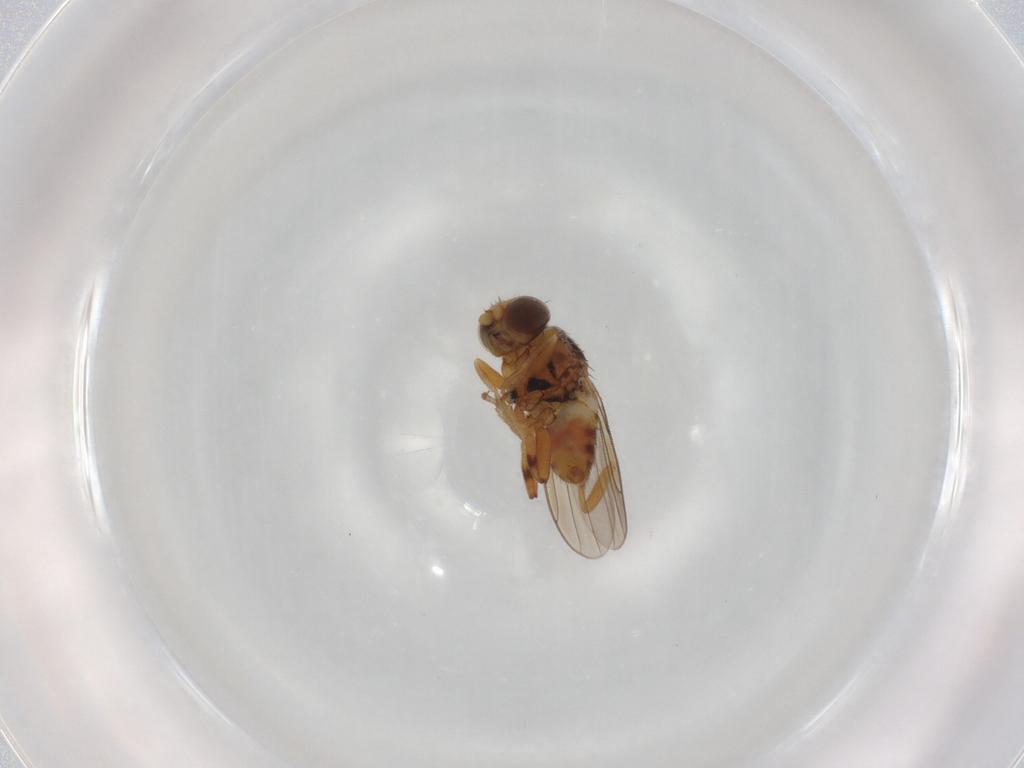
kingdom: Animalia
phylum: Arthropoda
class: Insecta
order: Diptera
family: Chloropidae
